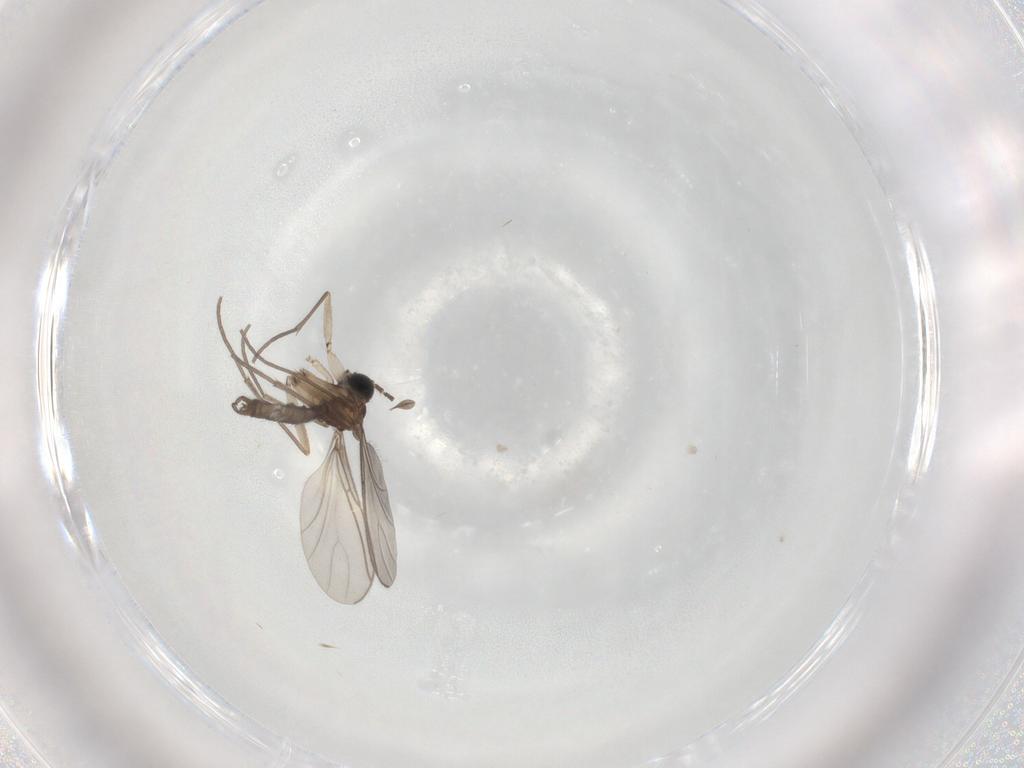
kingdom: Animalia
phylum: Arthropoda
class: Insecta
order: Diptera
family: Sciaridae
